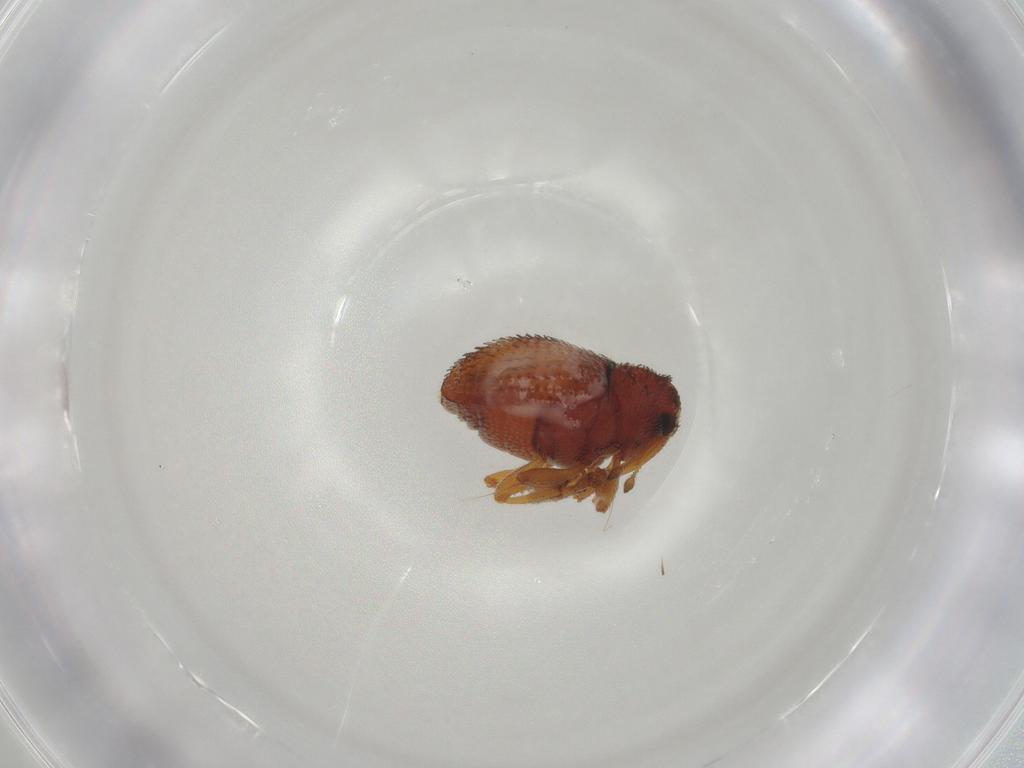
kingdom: Animalia
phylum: Arthropoda
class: Insecta
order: Coleoptera
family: Curculionidae
